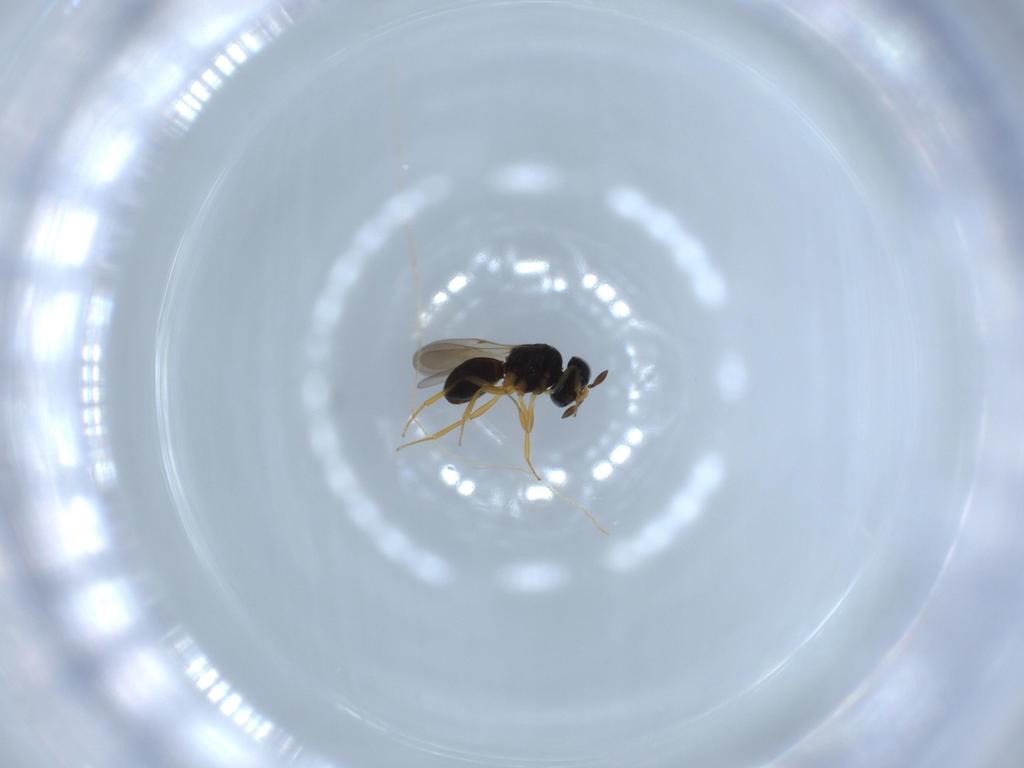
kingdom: Animalia
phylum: Arthropoda
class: Insecta
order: Hymenoptera
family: Scelionidae
